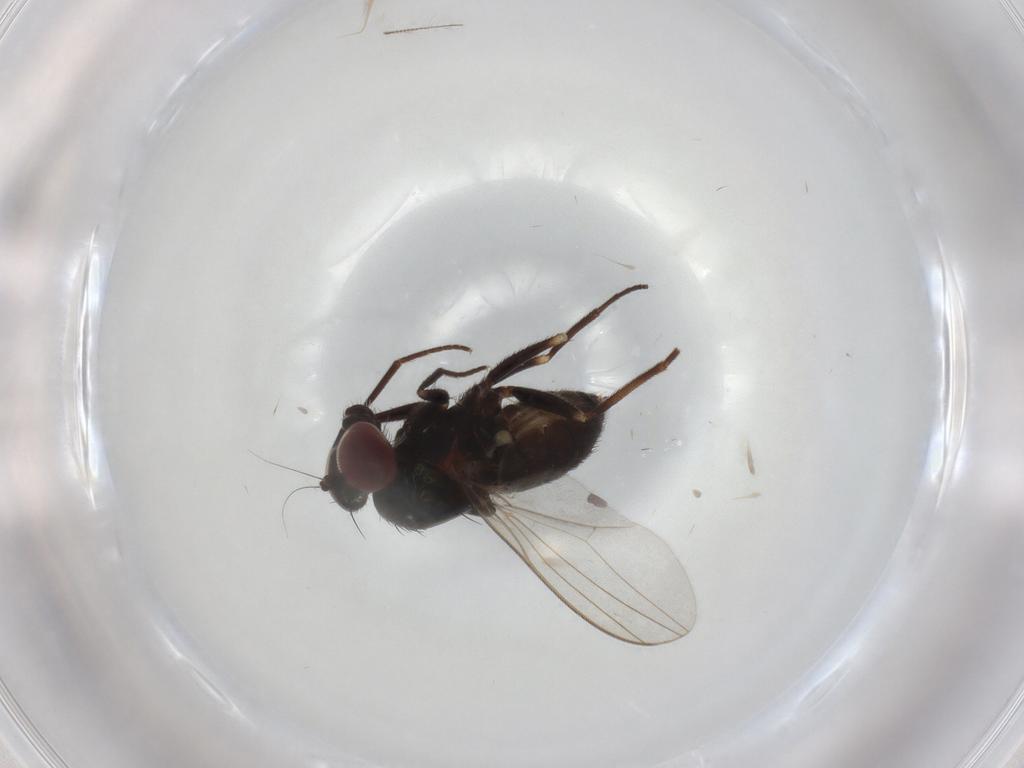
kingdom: Animalia
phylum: Arthropoda
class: Insecta
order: Diptera
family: Dolichopodidae
